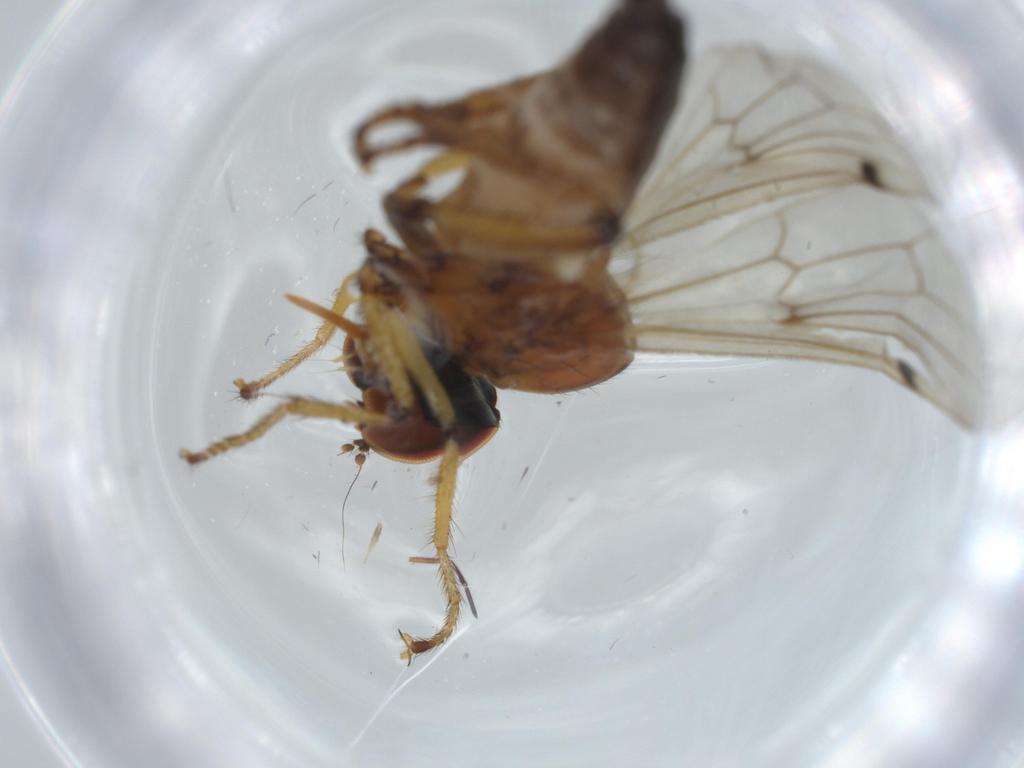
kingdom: Animalia
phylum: Arthropoda
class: Insecta
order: Diptera
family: Hybotidae
